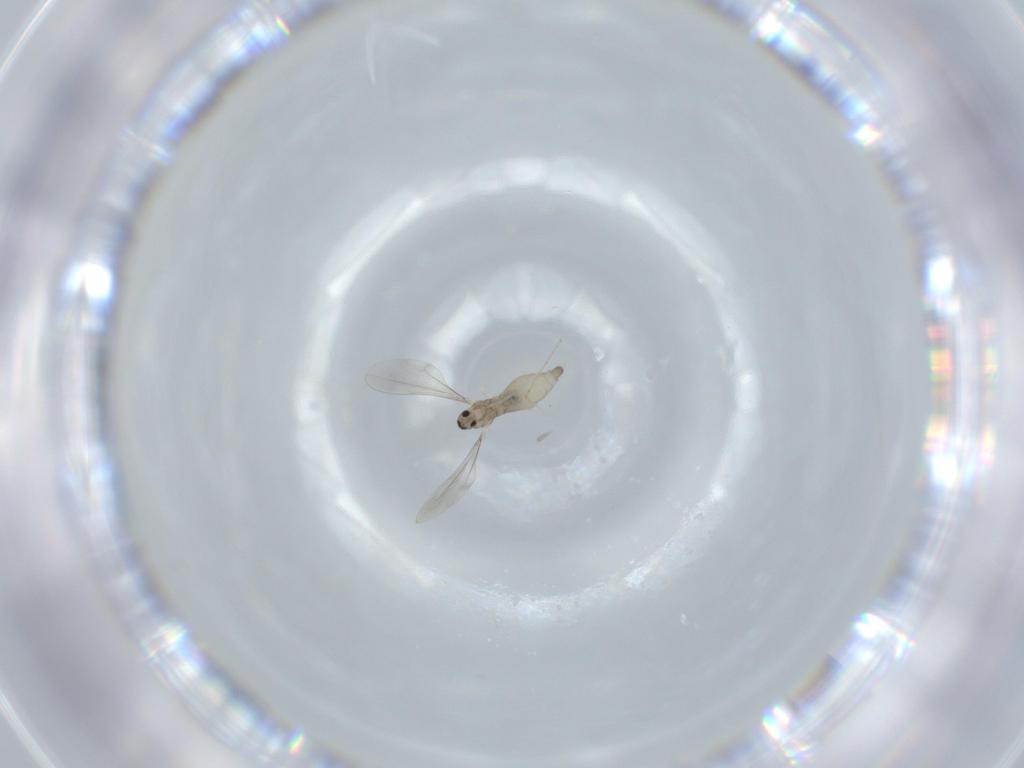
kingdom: Animalia
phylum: Arthropoda
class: Insecta
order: Diptera
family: Cecidomyiidae
